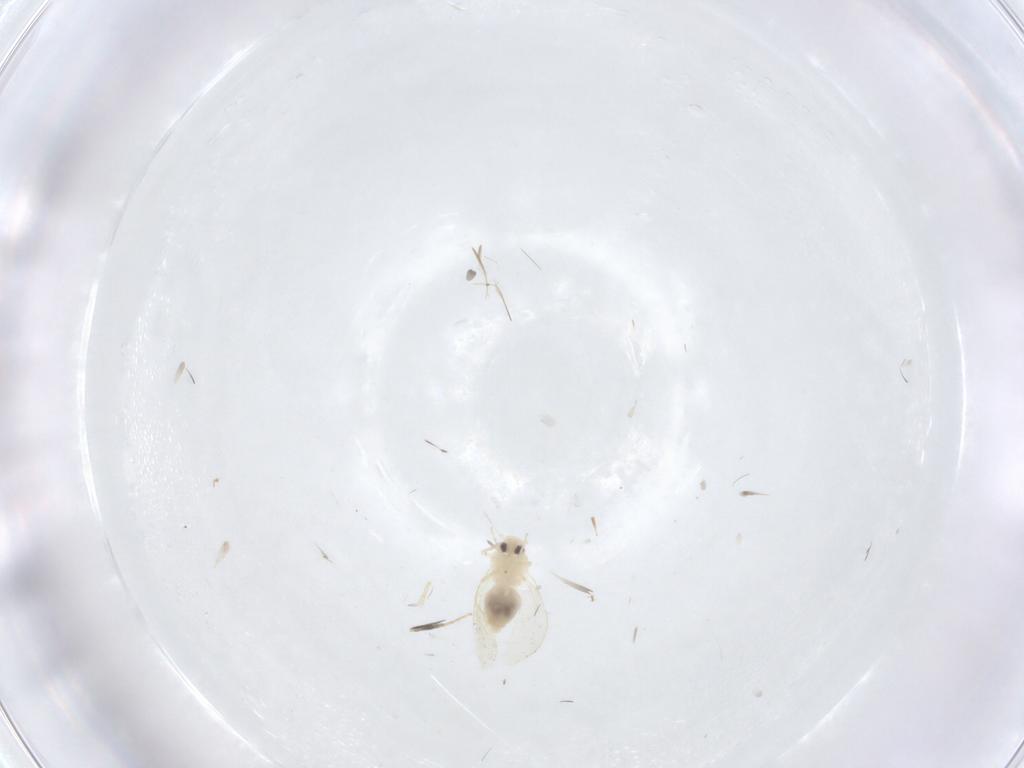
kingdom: Animalia
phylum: Arthropoda
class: Insecta
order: Hemiptera
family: Aleyrodidae
